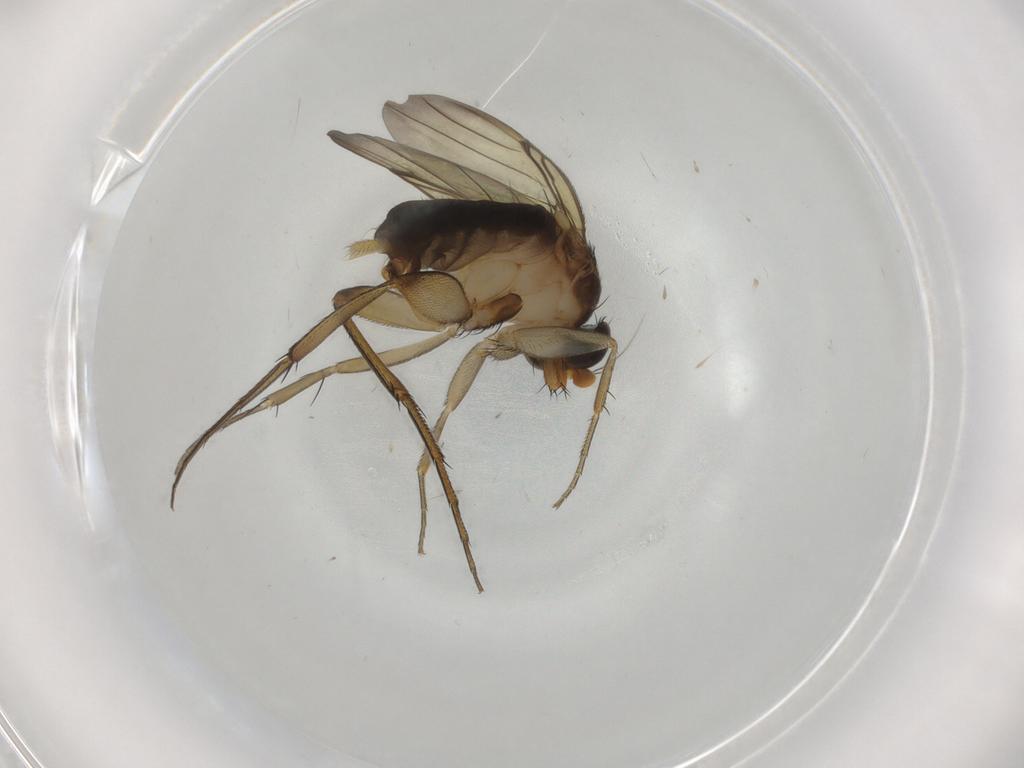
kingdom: Animalia
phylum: Arthropoda
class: Insecta
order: Diptera
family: Phoridae
